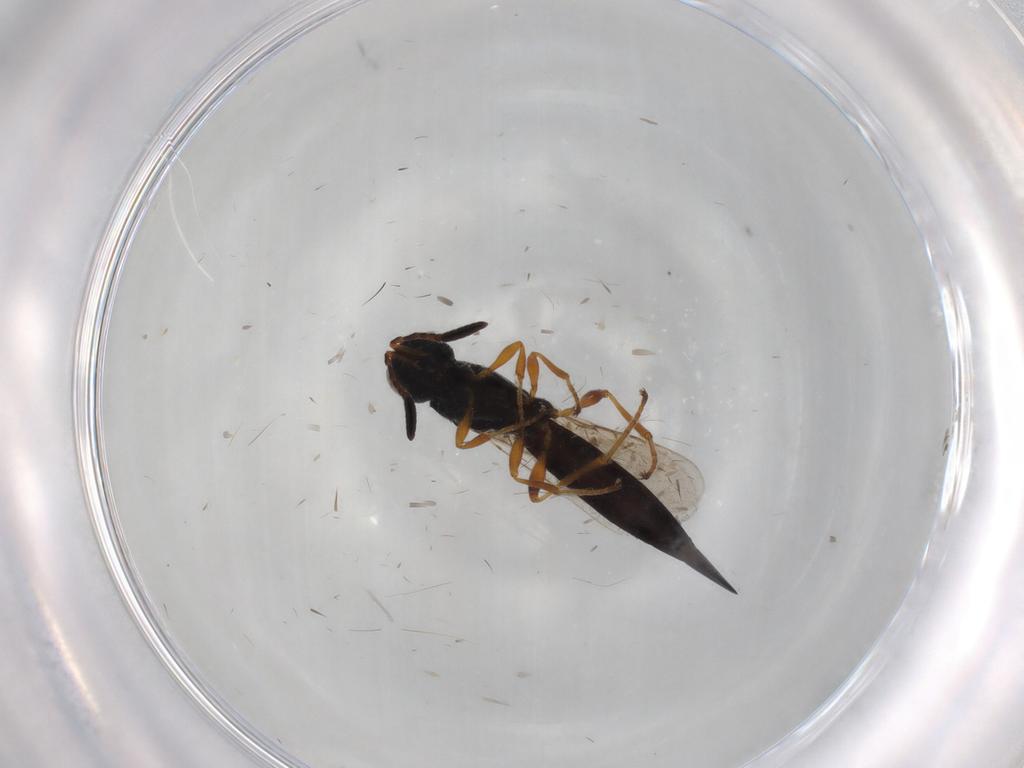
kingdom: Animalia
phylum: Arthropoda
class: Insecta
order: Hymenoptera
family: Scelionidae
